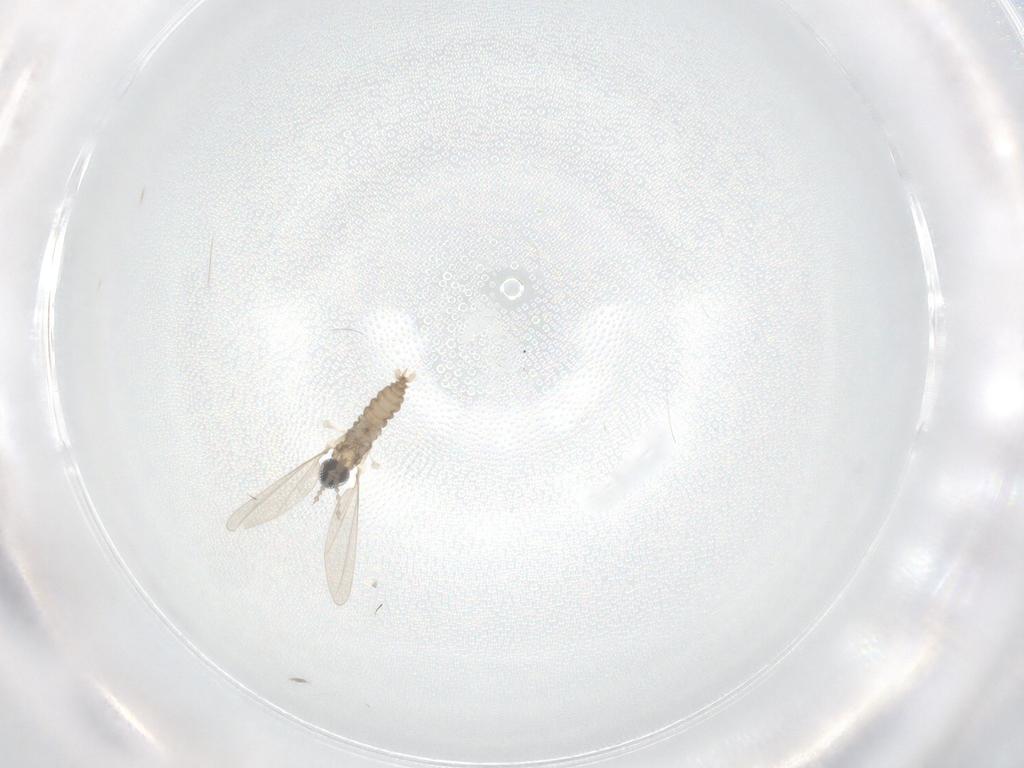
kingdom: Animalia
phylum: Arthropoda
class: Insecta
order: Diptera
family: Cecidomyiidae
